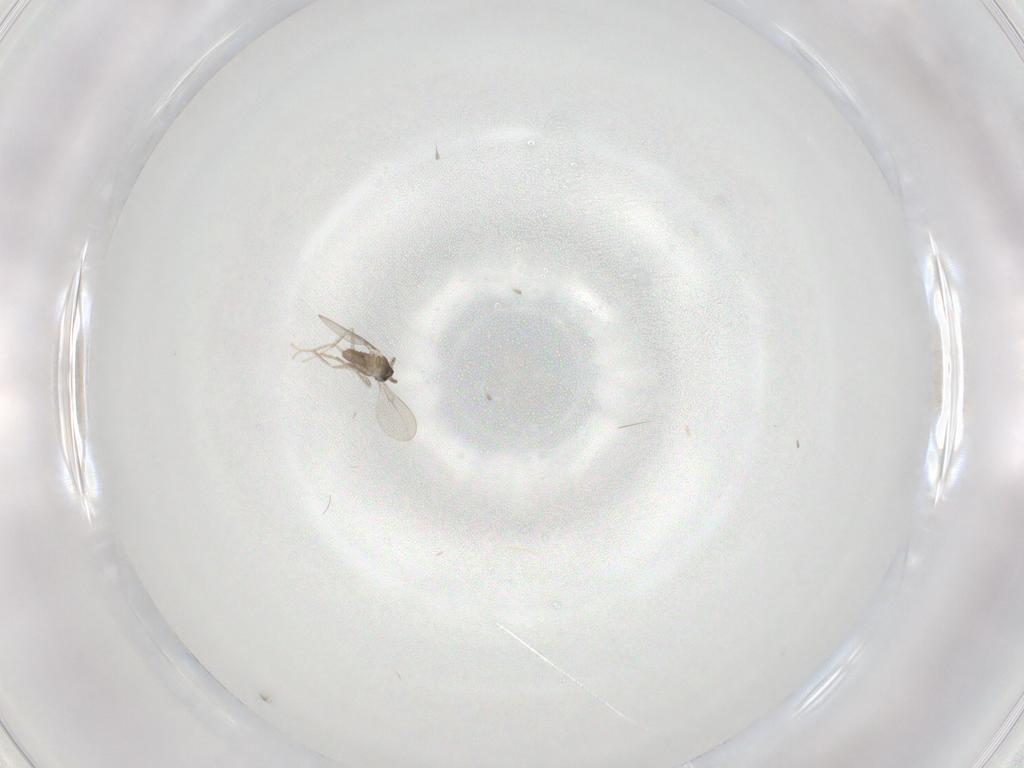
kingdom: Animalia
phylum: Arthropoda
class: Insecta
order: Diptera
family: Cecidomyiidae
